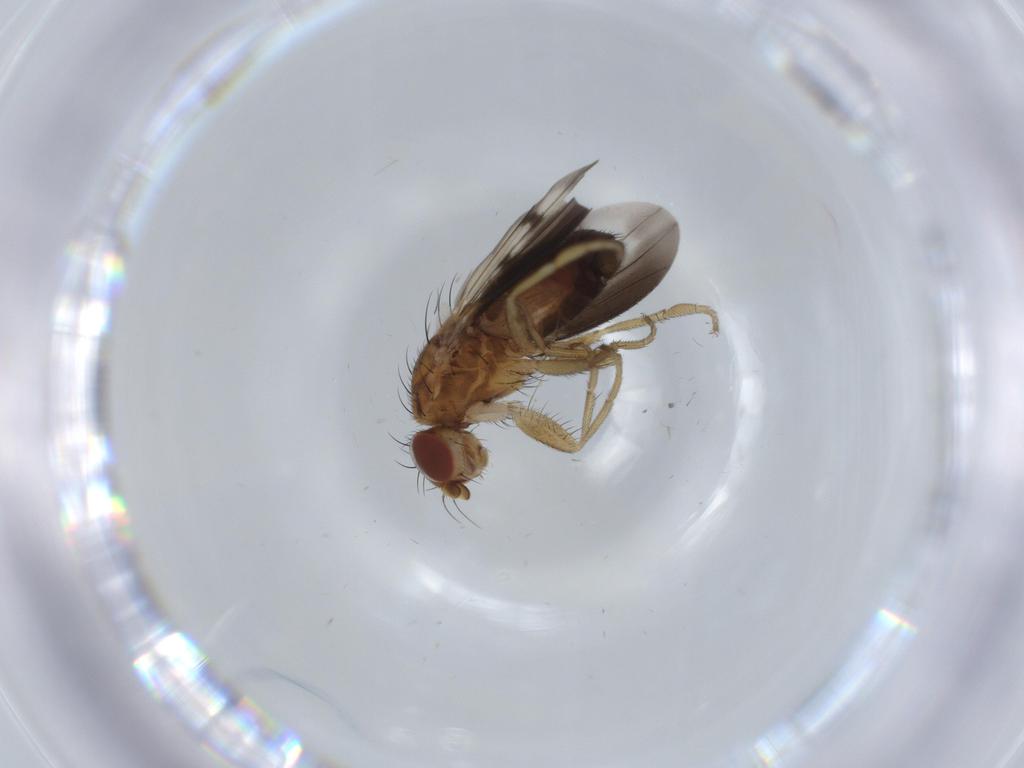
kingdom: Animalia
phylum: Arthropoda
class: Insecta
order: Diptera
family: Heleomyzidae
